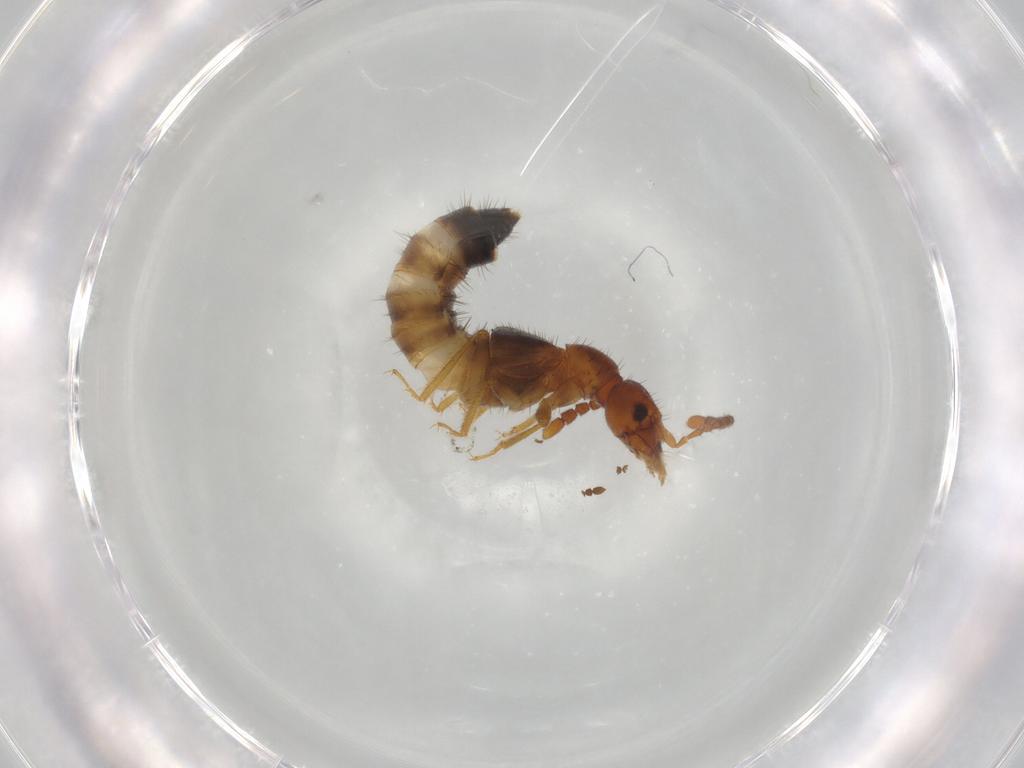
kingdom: Animalia
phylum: Arthropoda
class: Insecta
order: Coleoptera
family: Staphylinidae
